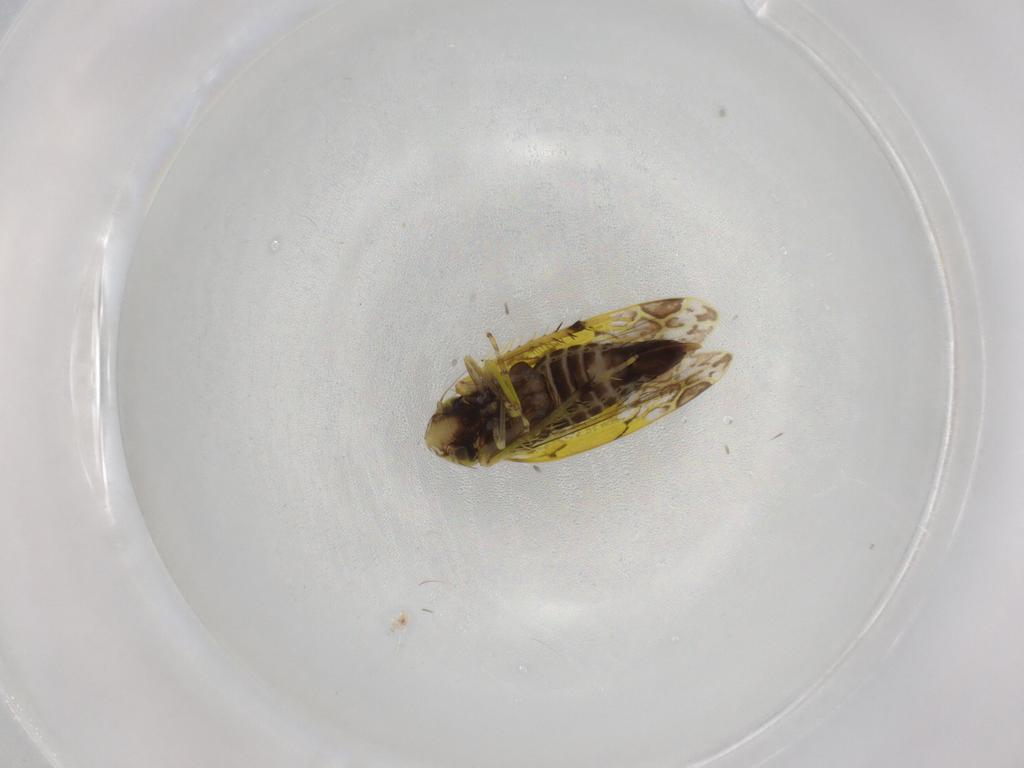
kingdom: Animalia
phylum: Arthropoda
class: Insecta
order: Hemiptera
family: Cicadellidae
